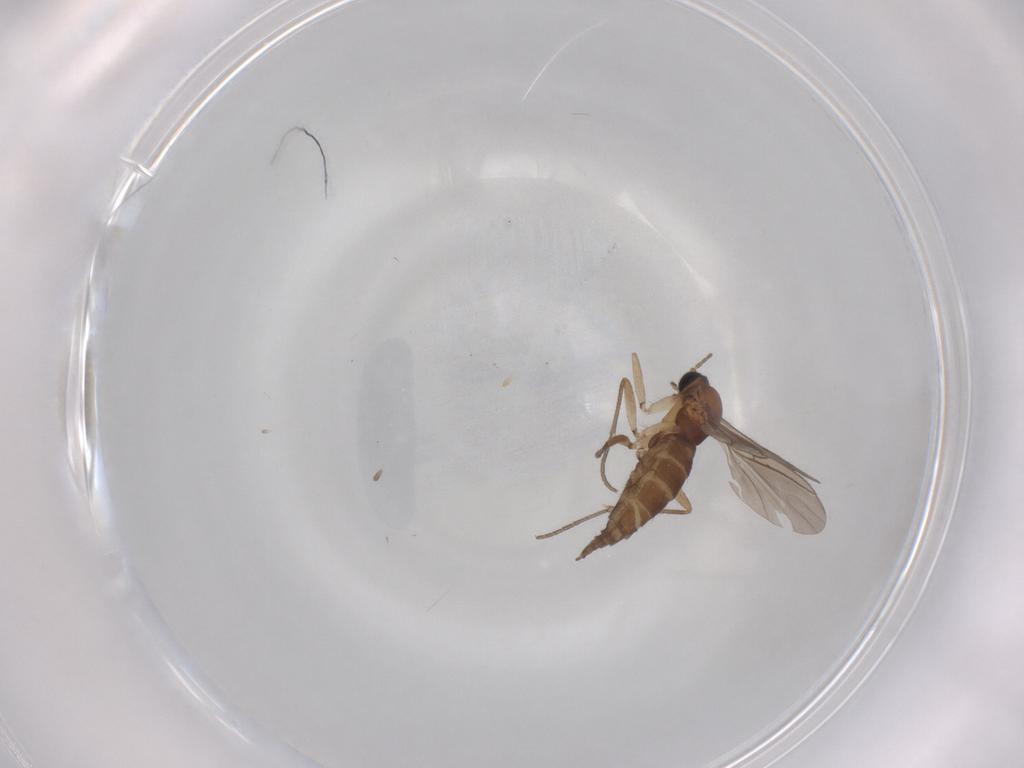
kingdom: Animalia
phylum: Arthropoda
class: Insecta
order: Diptera
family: Sciaridae
